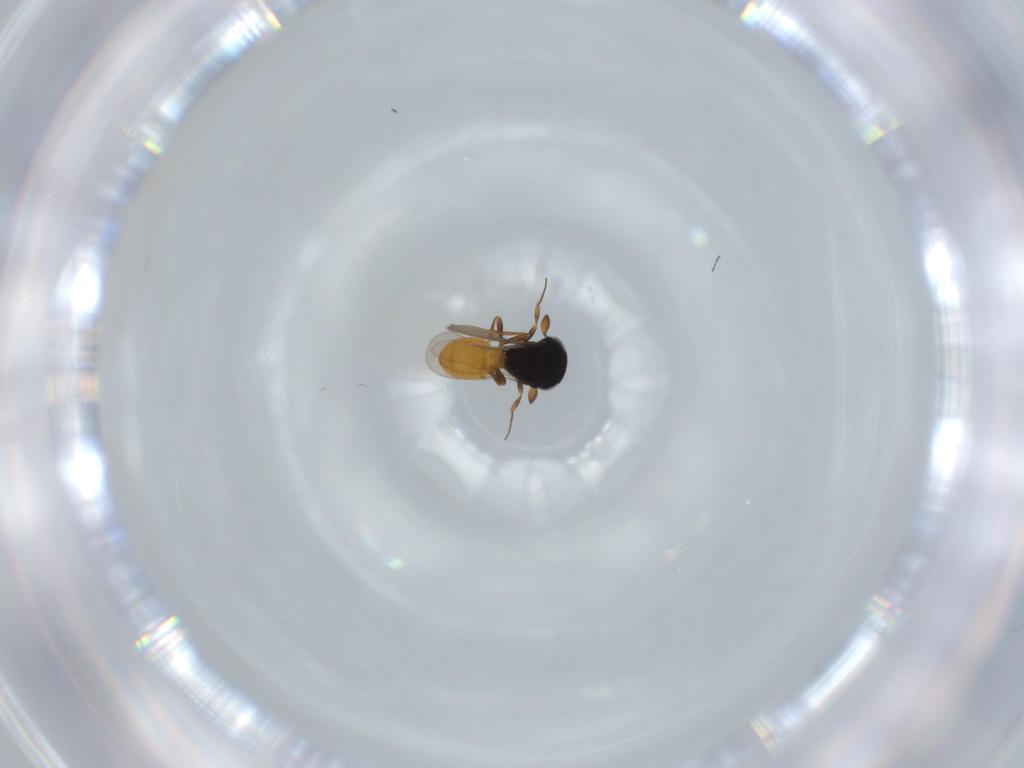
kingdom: Animalia
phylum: Arthropoda
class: Insecta
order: Hymenoptera
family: Scelionidae
